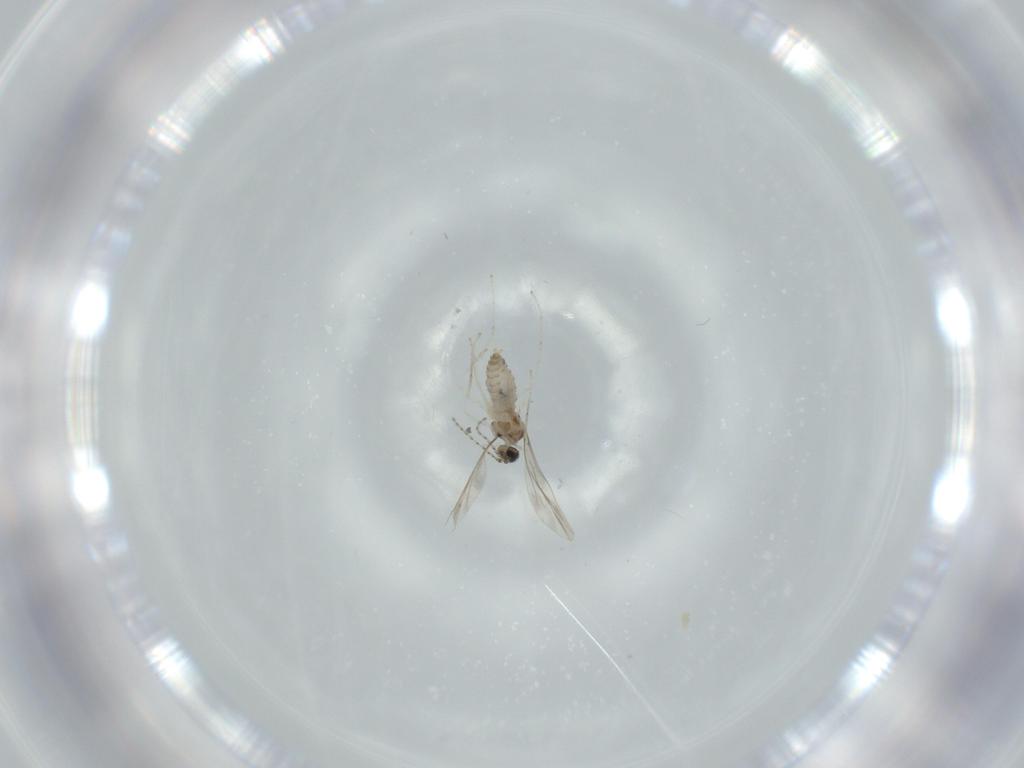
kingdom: Animalia
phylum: Arthropoda
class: Insecta
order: Diptera
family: Cecidomyiidae
